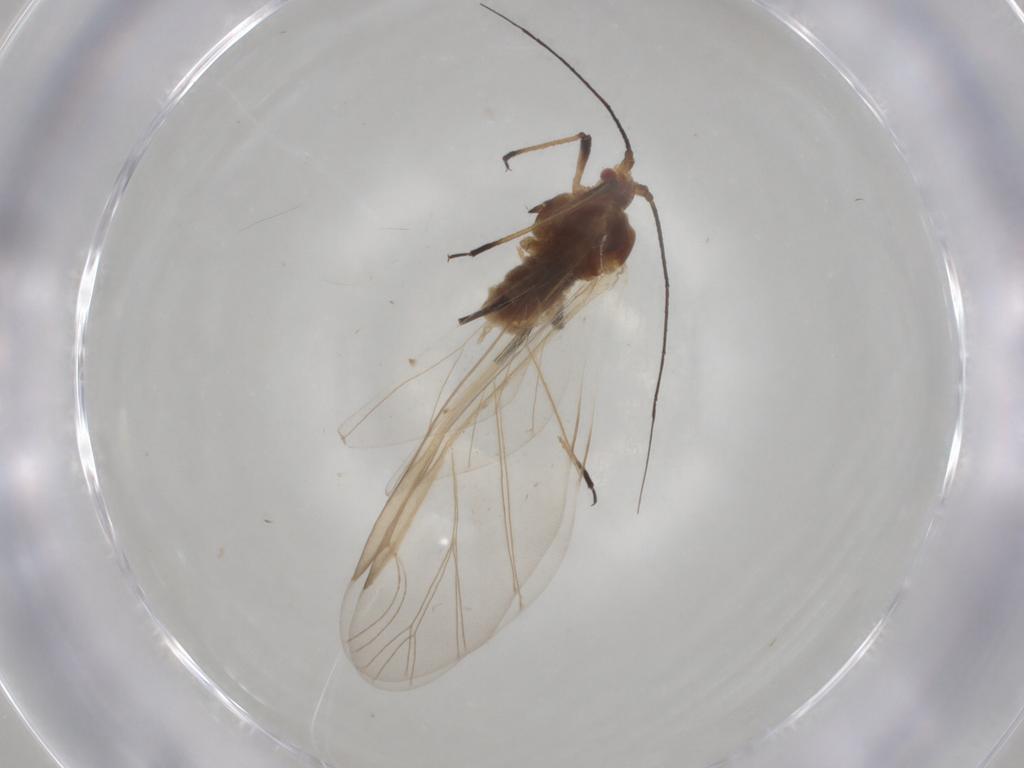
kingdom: Animalia
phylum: Arthropoda
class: Insecta
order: Hemiptera
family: Aphididae
